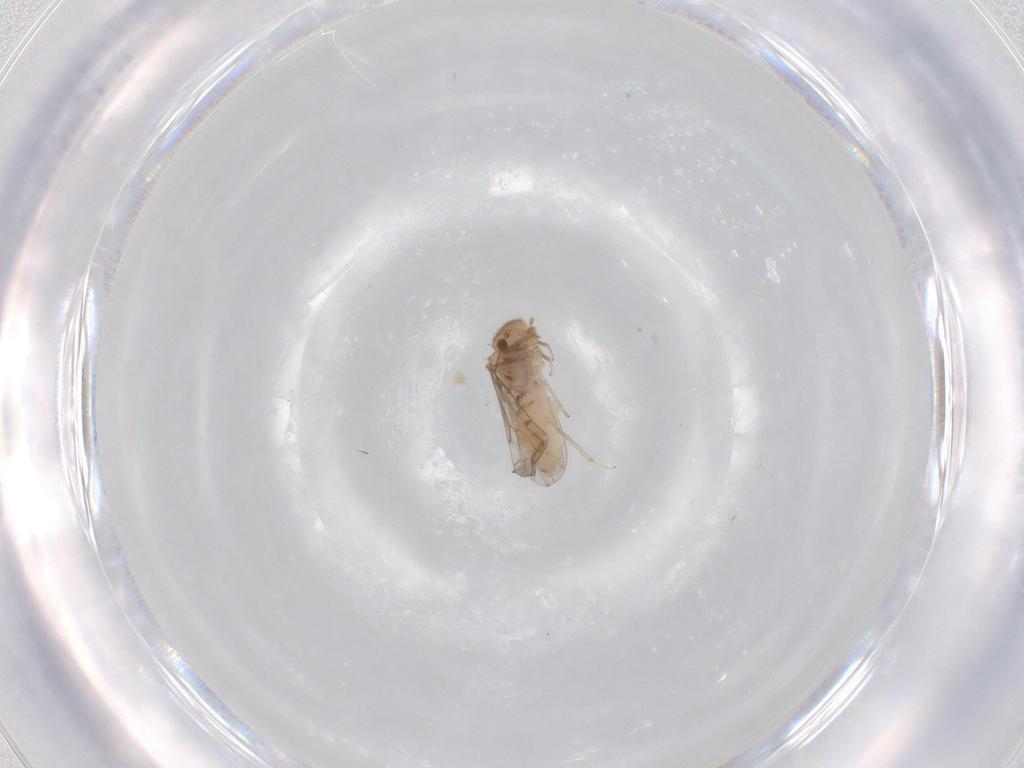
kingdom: Animalia
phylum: Arthropoda
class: Insecta
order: Psocodea
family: Ectopsocidae
